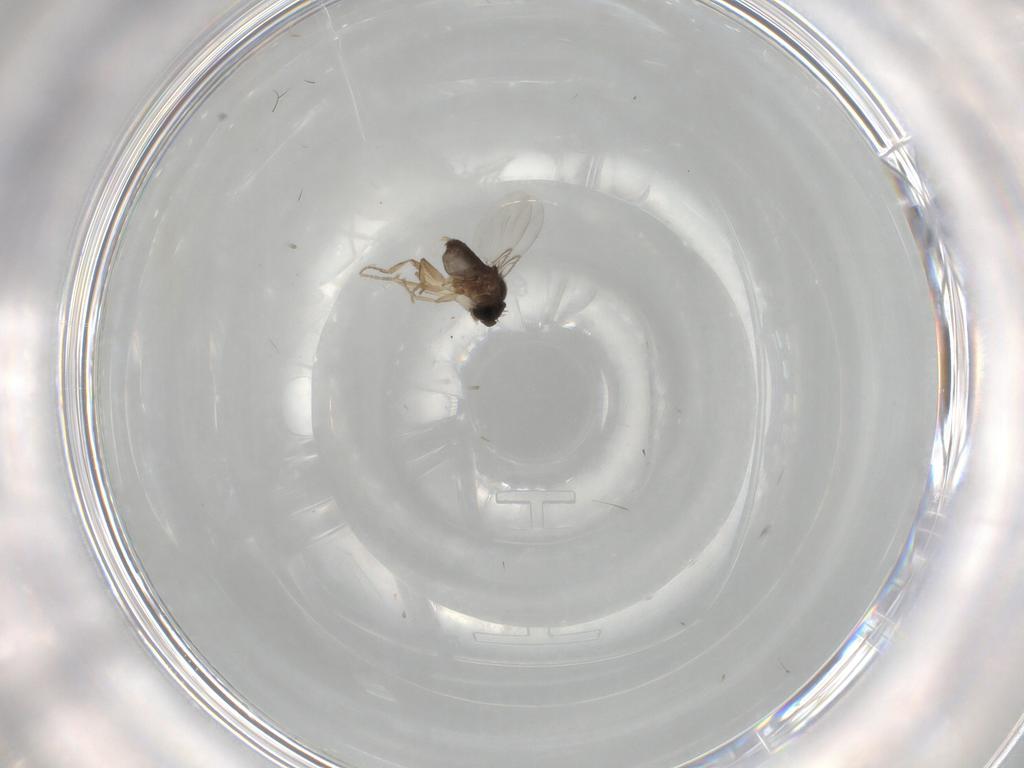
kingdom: Animalia
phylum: Arthropoda
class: Insecta
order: Diptera
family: Phoridae
